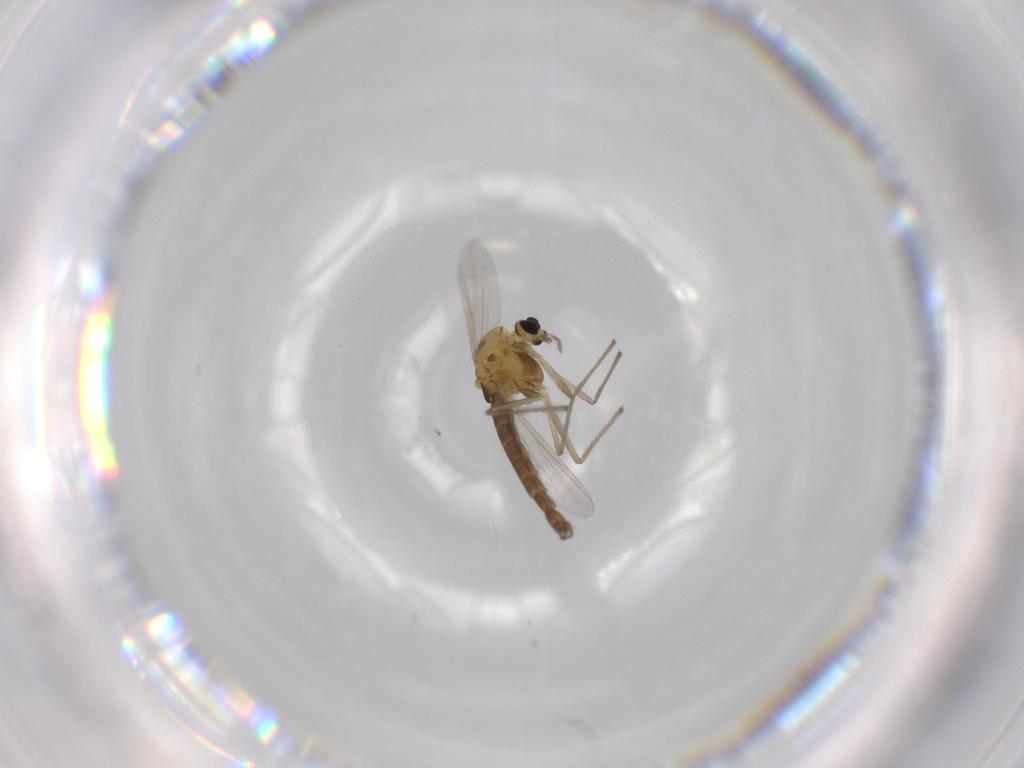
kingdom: Animalia
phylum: Arthropoda
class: Insecta
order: Diptera
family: Chironomidae
